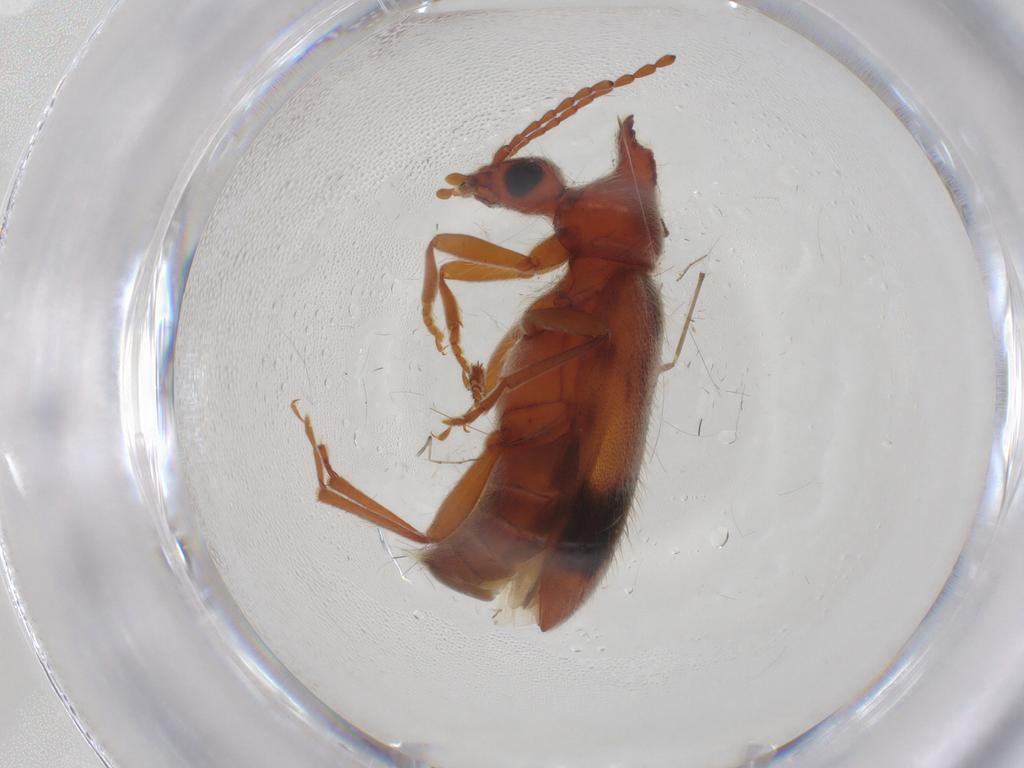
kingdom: Animalia
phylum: Arthropoda
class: Insecta
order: Coleoptera
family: Anthicidae
